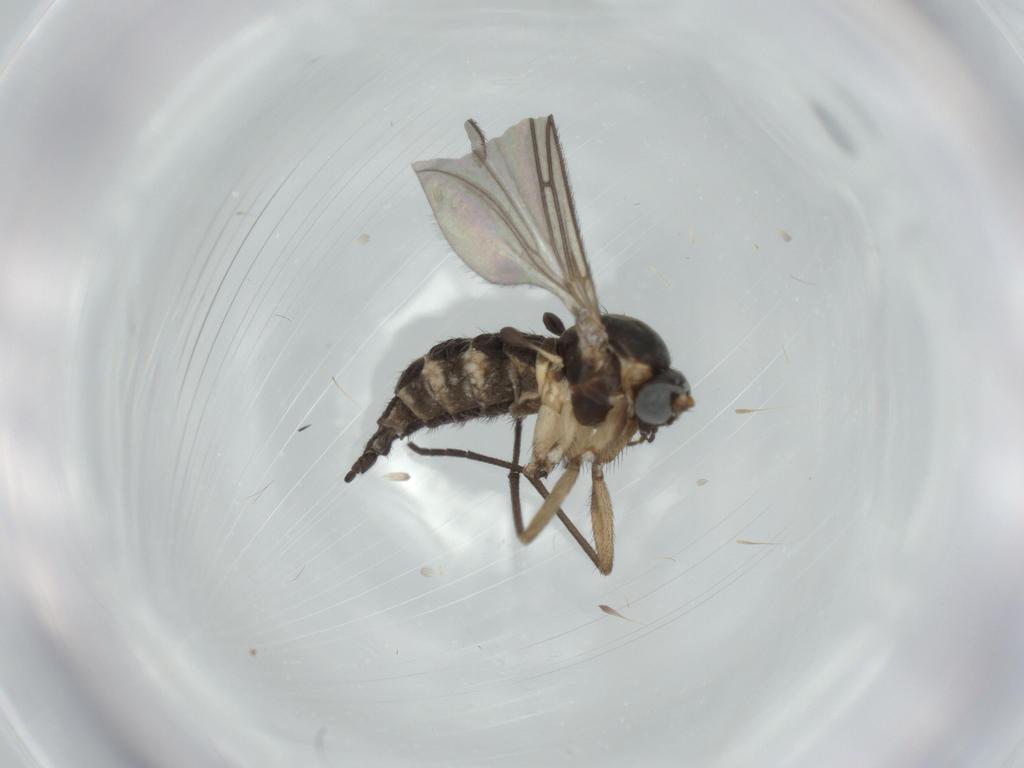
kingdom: Animalia
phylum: Arthropoda
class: Insecta
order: Diptera
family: Sciaridae
